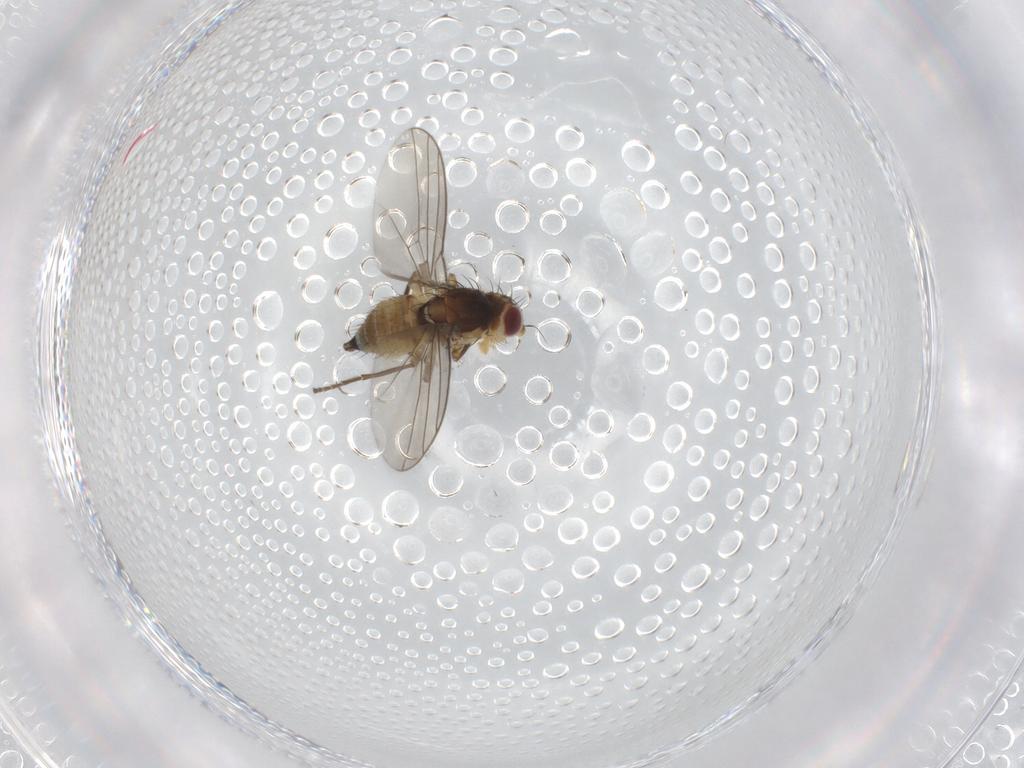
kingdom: Animalia
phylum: Arthropoda
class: Insecta
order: Diptera
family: Agromyzidae
